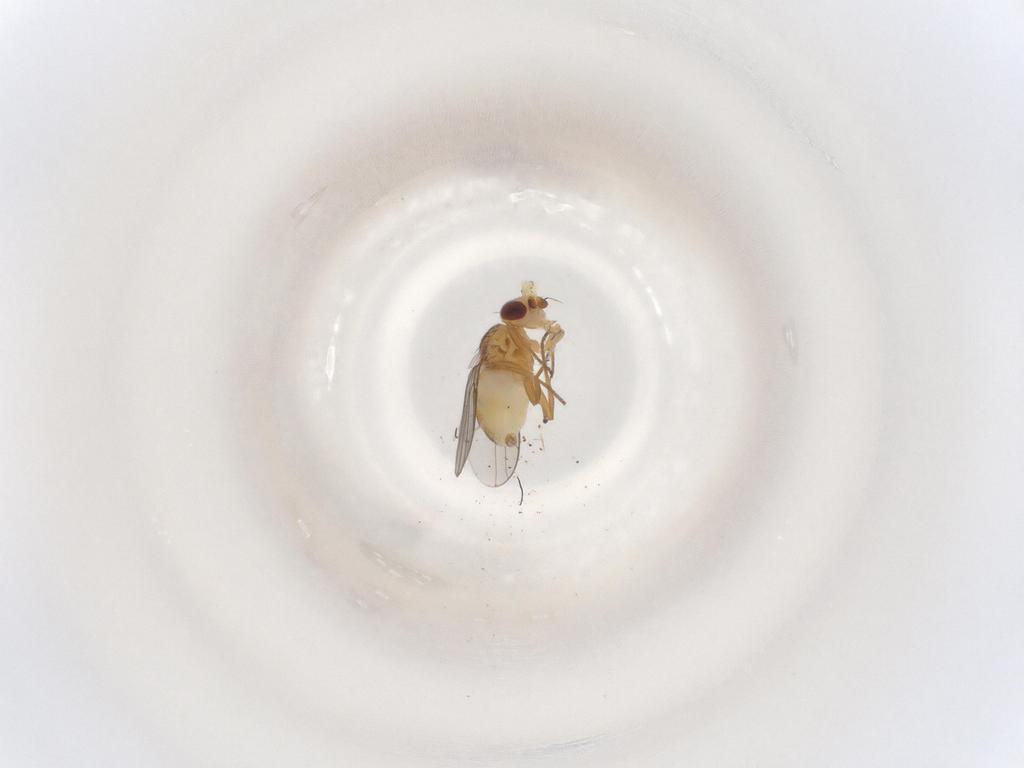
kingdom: Animalia
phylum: Arthropoda
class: Insecta
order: Diptera
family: Chloropidae
